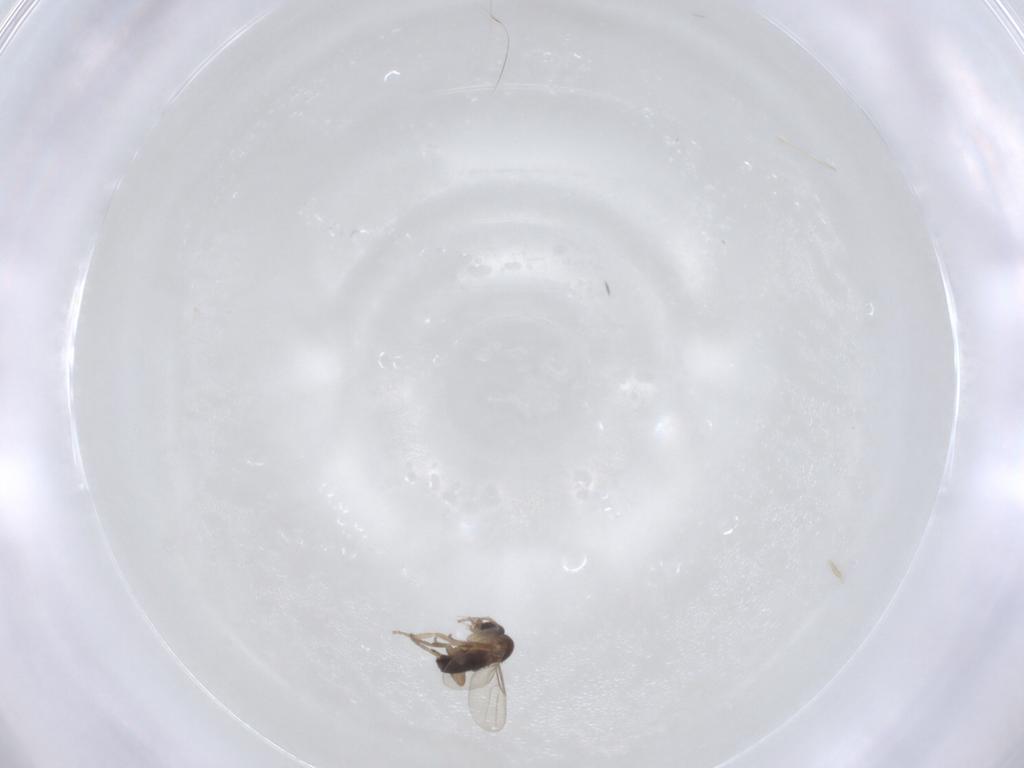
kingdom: Animalia
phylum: Arthropoda
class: Insecta
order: Diptera
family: Phoridae
